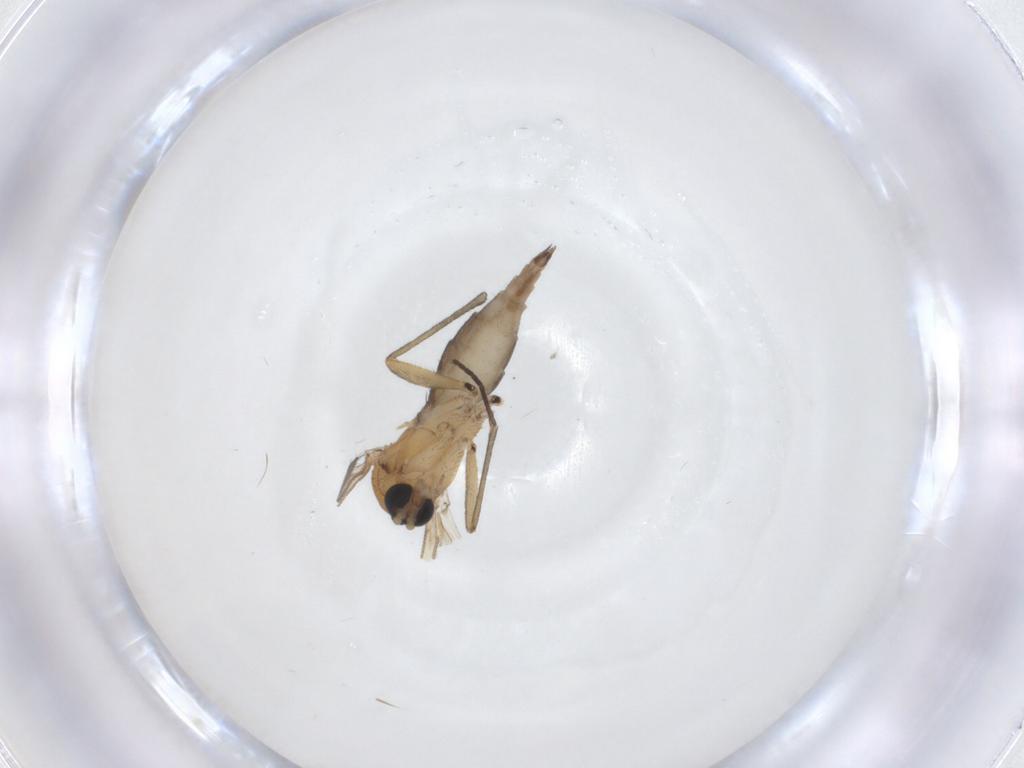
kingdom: Animalia
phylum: Arthropoda
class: Insecta
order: Diptera
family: Sciaridae
